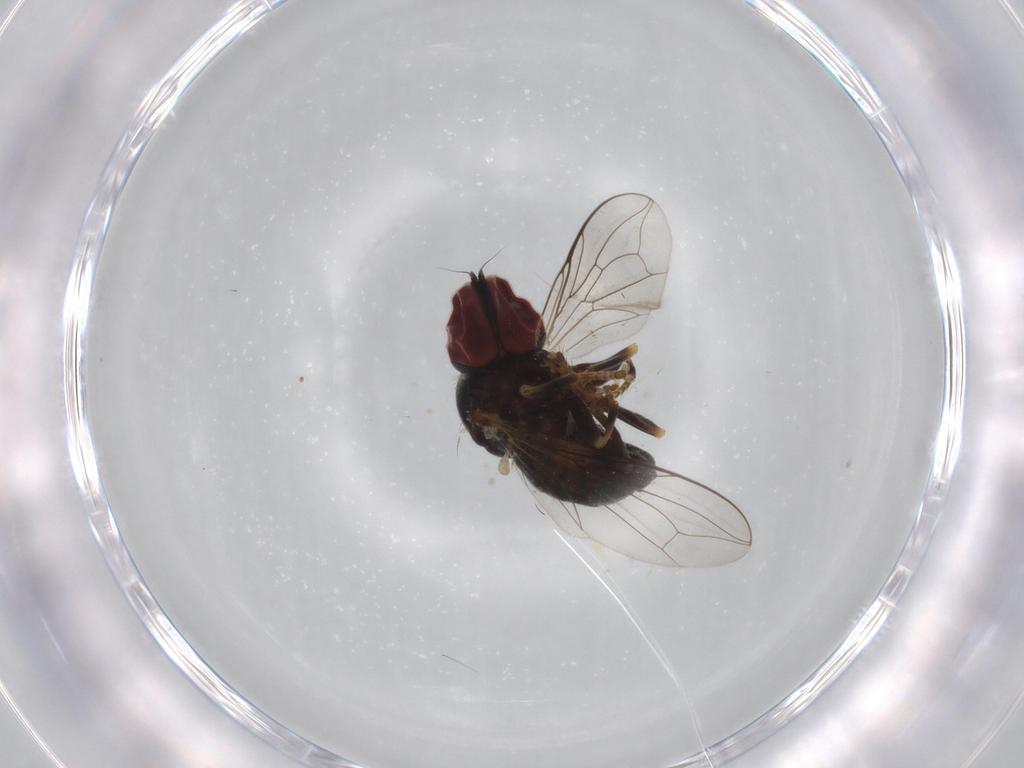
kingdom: Animalia
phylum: Arthropoda
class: Insecta
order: Diptera
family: Pipunculidae
